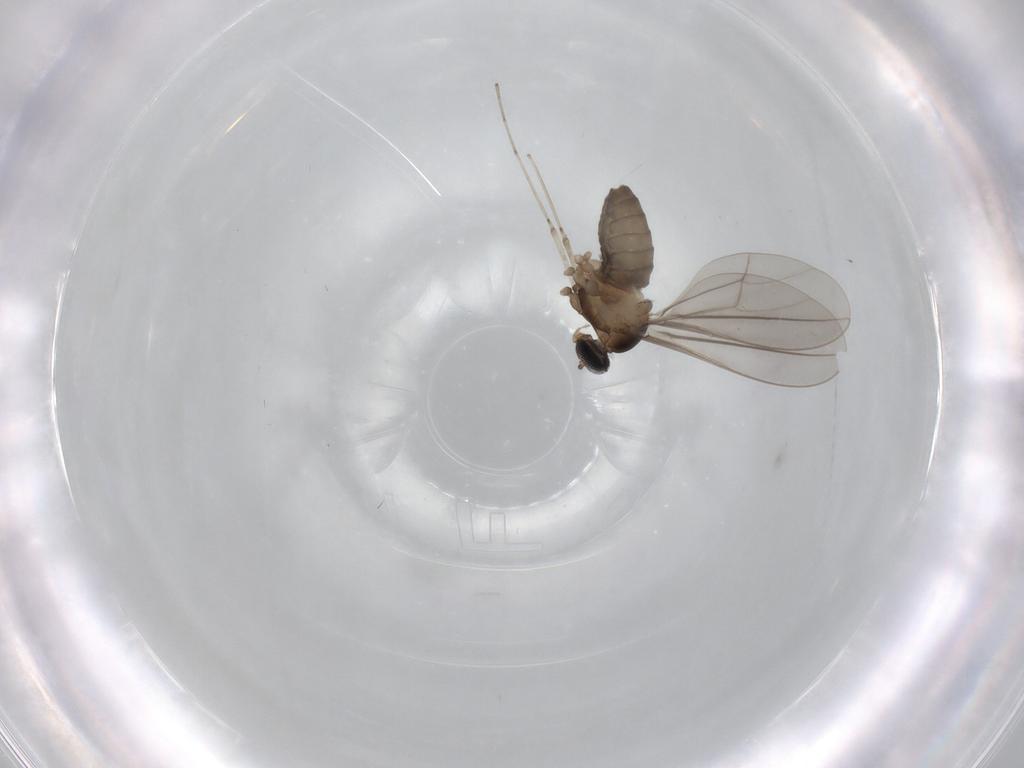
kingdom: Animalia
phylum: Arthropoda
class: Insecta
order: Diptera
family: Cecidomyiidae
